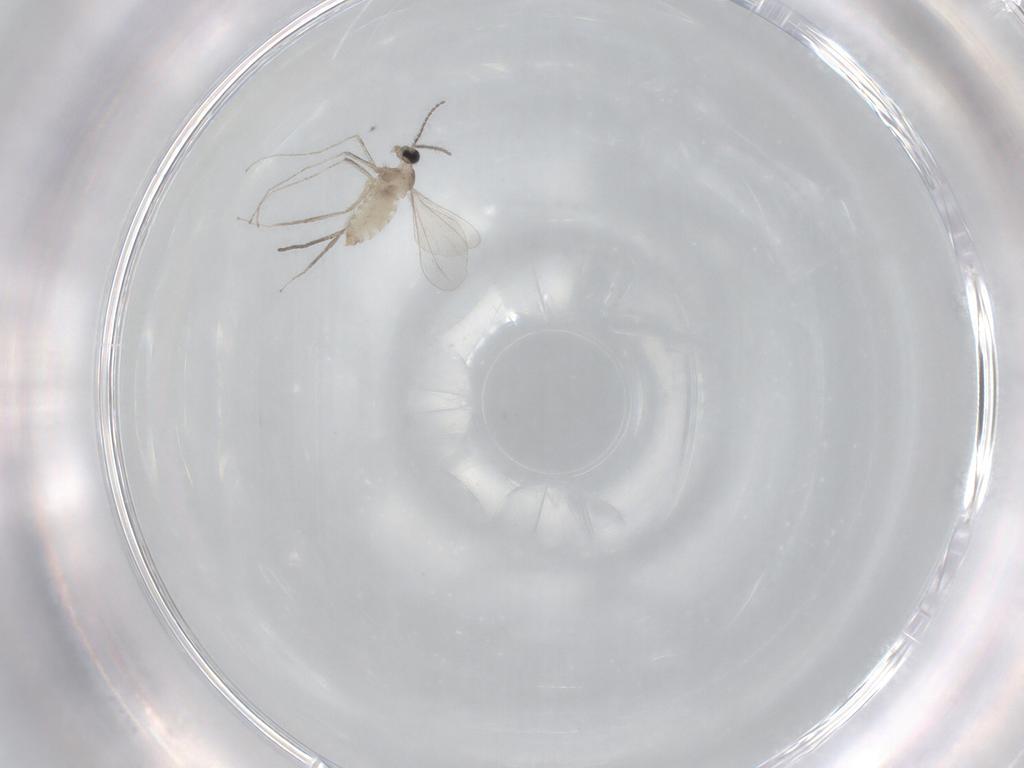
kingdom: Animalia
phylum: Arthropoda
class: Insecta
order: Diptera
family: Cecidomyiidae
